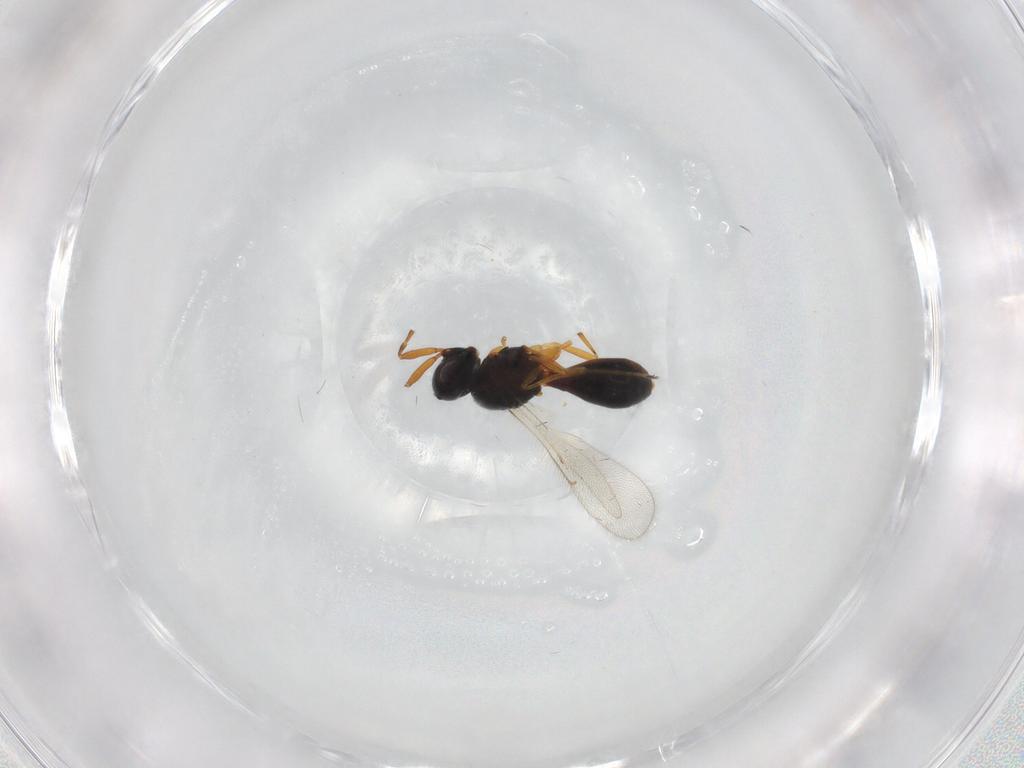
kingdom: Animalia
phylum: Arthropoda
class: Insecta
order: Hymenoptera
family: Scelionidae
